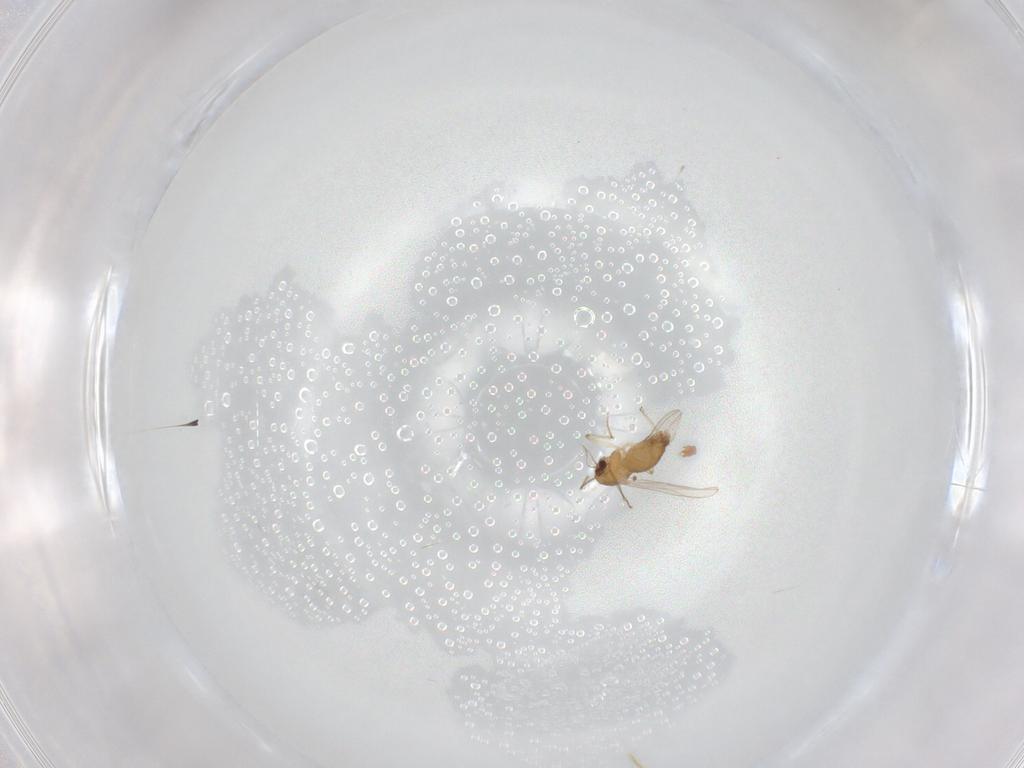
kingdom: Animalia
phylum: Arthropoda
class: Insecta
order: Diptera
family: Chironomidae
